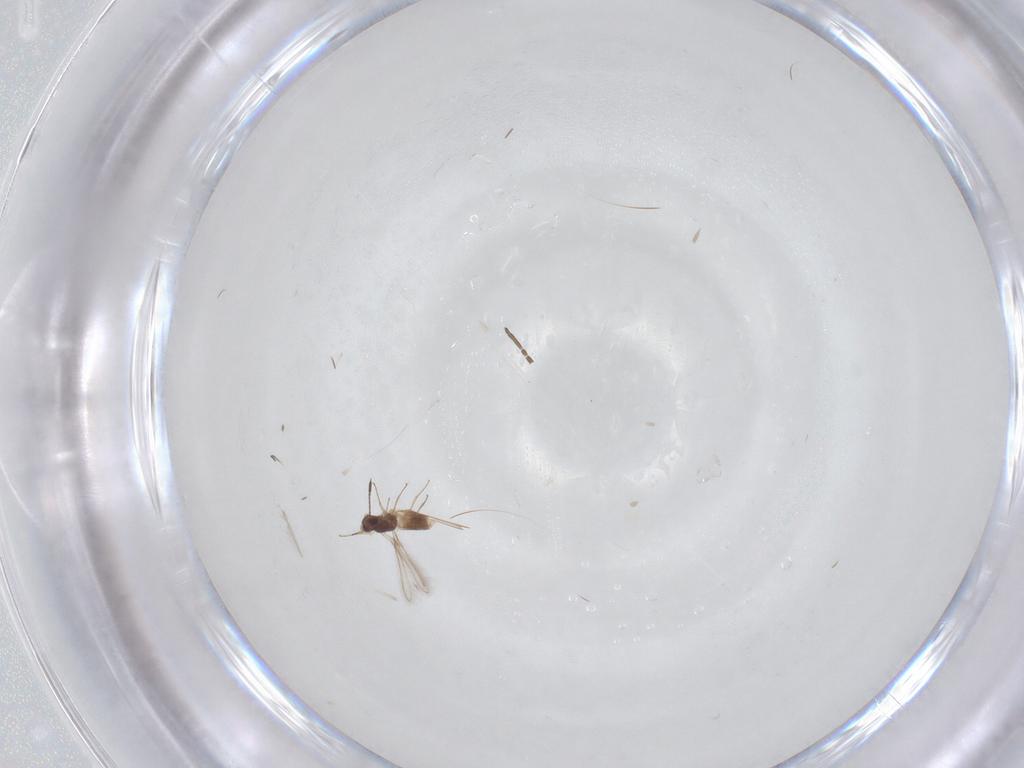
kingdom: Animalia
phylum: Arthropoda
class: Insecta
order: Hymenoptera
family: Mymaridae
